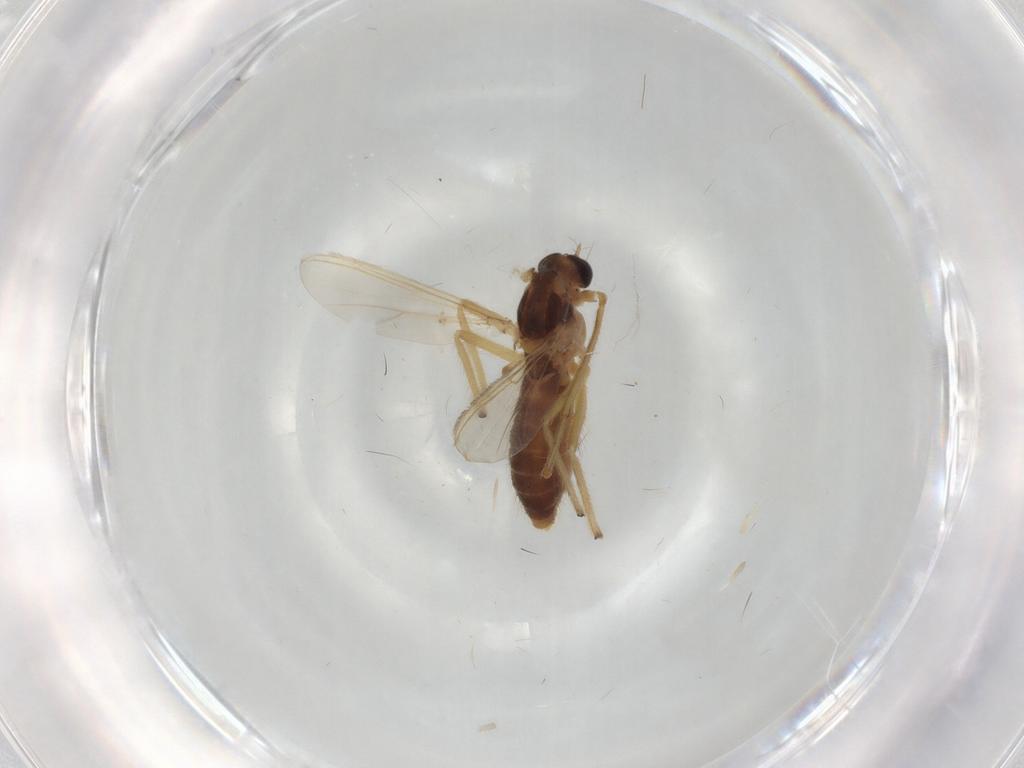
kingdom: Animalia
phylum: Arthropoda
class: Insecta
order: Diptera
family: Chironomidae
